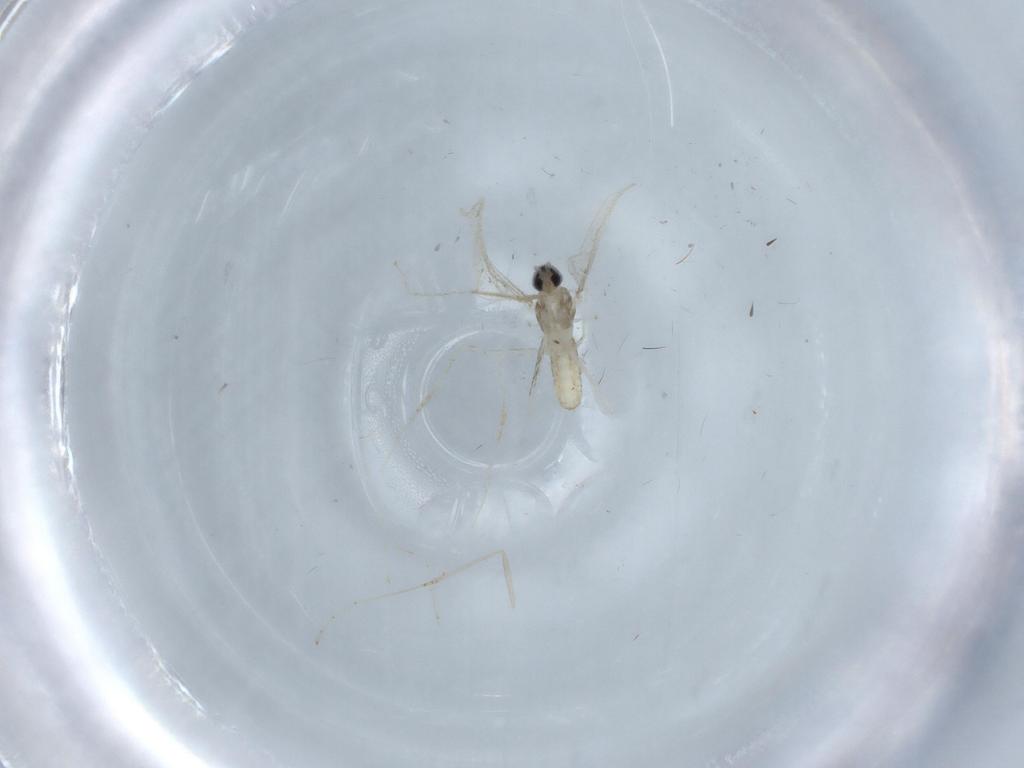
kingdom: Animalia
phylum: Arthropoda
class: Insecta
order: Diptera
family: Cecidomyiidae
